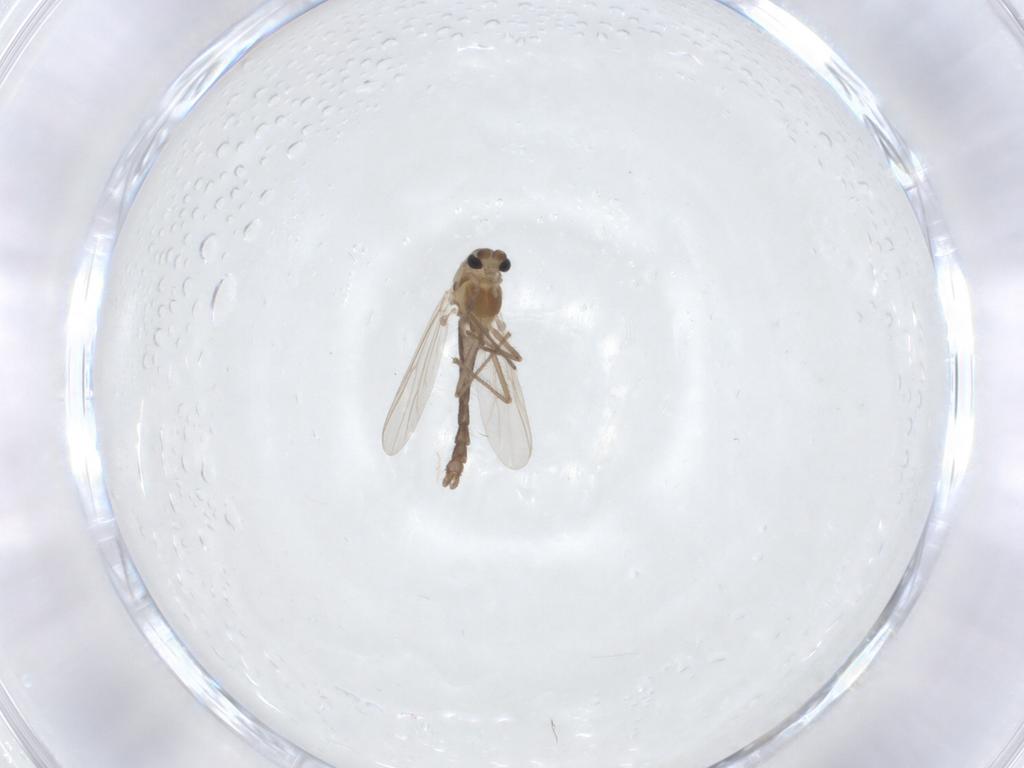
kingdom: Animalia
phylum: Arthropoda
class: Insecta
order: Diptera
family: Chironomidae
